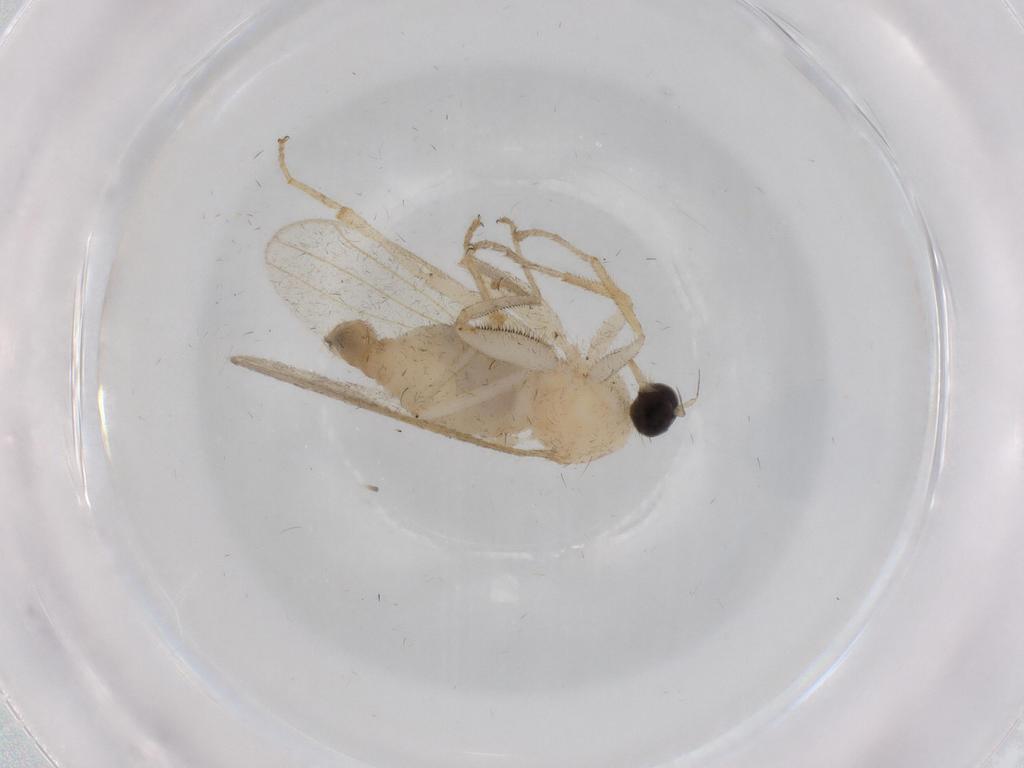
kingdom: Animalia
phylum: Arthropoda
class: Insecta
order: Diptera
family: Hybotidae
